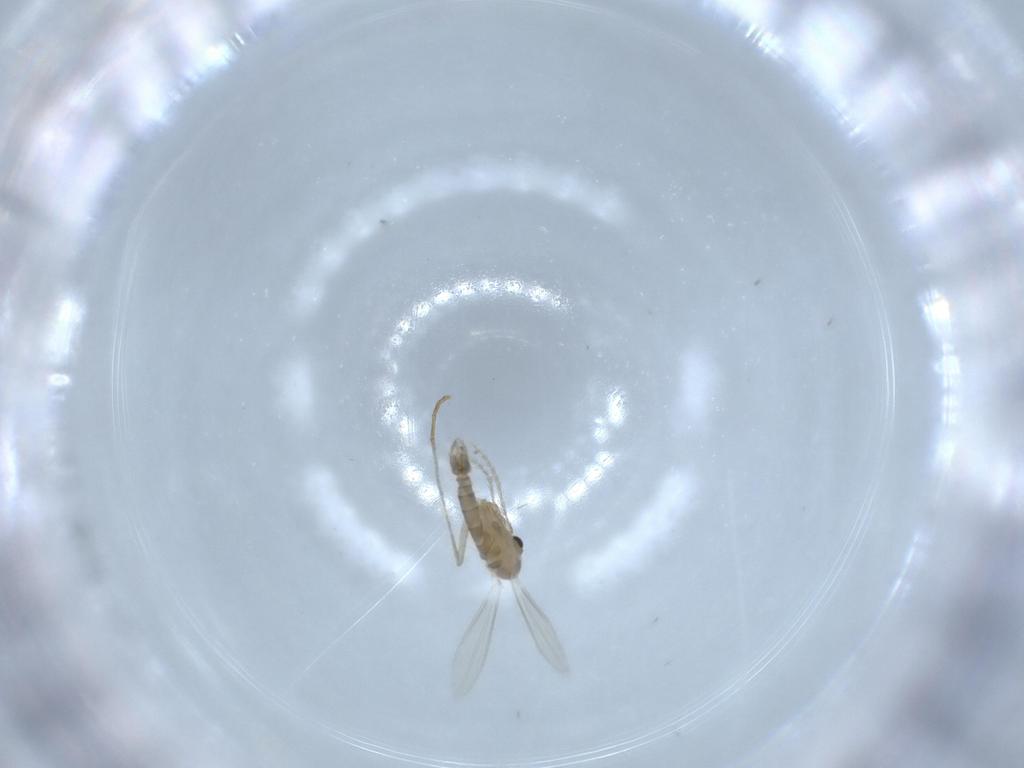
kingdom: Animalia
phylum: Arthropoda
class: Insecta
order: Diptera
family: Psychodidae
